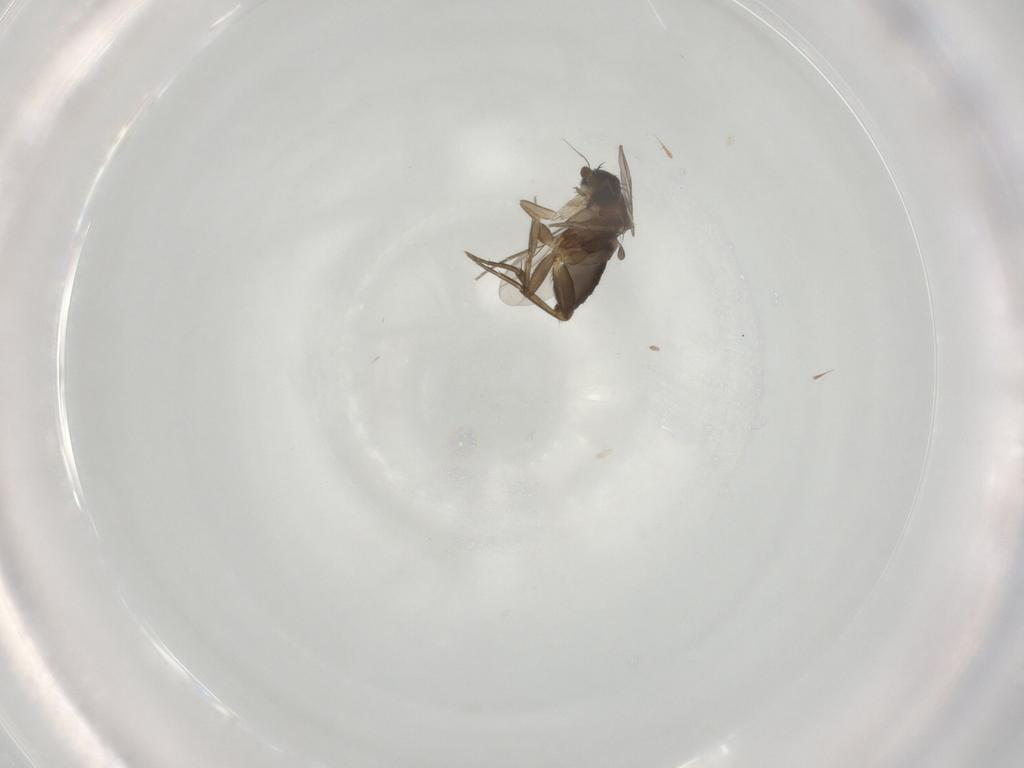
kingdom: Animalia
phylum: Arthropoda
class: Insecta
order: Diptera
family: Phoridae
